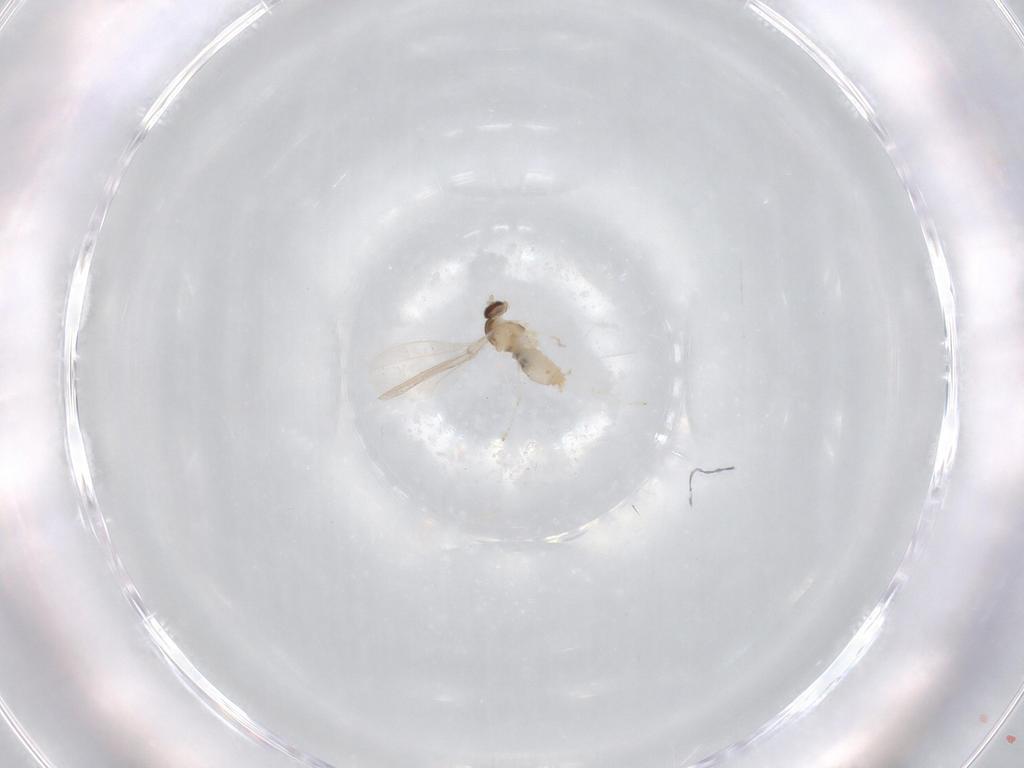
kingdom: Animalia
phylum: Arthropoda
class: Insecta
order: Diptera
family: Cecidomyiidae
